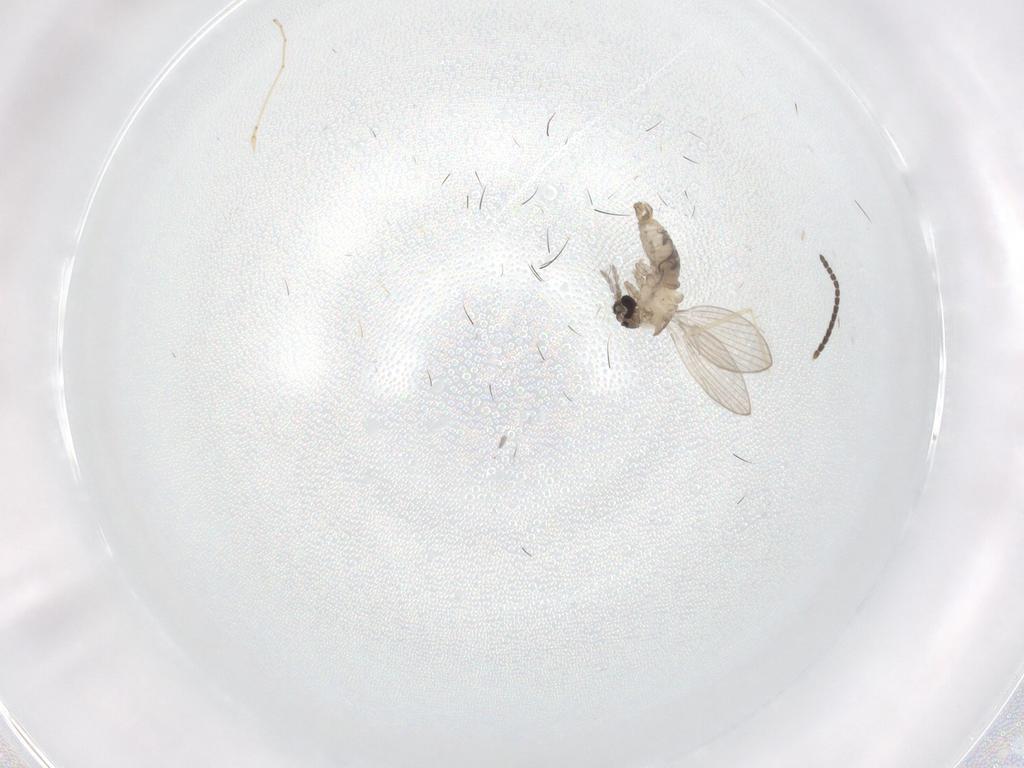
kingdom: Animalia
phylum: Arthropoda
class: Insecta
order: Diptera
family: Psychodidae
